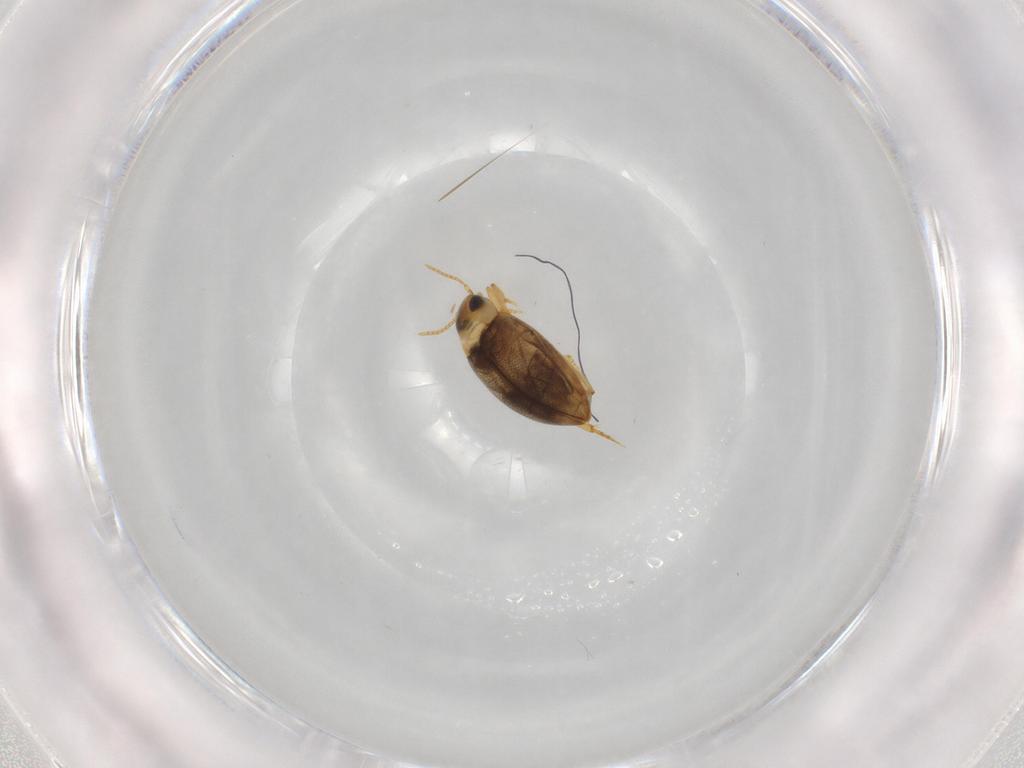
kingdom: Animalia
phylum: Arthropoda
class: Insecta
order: Coleoptera
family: Dytiscidae
